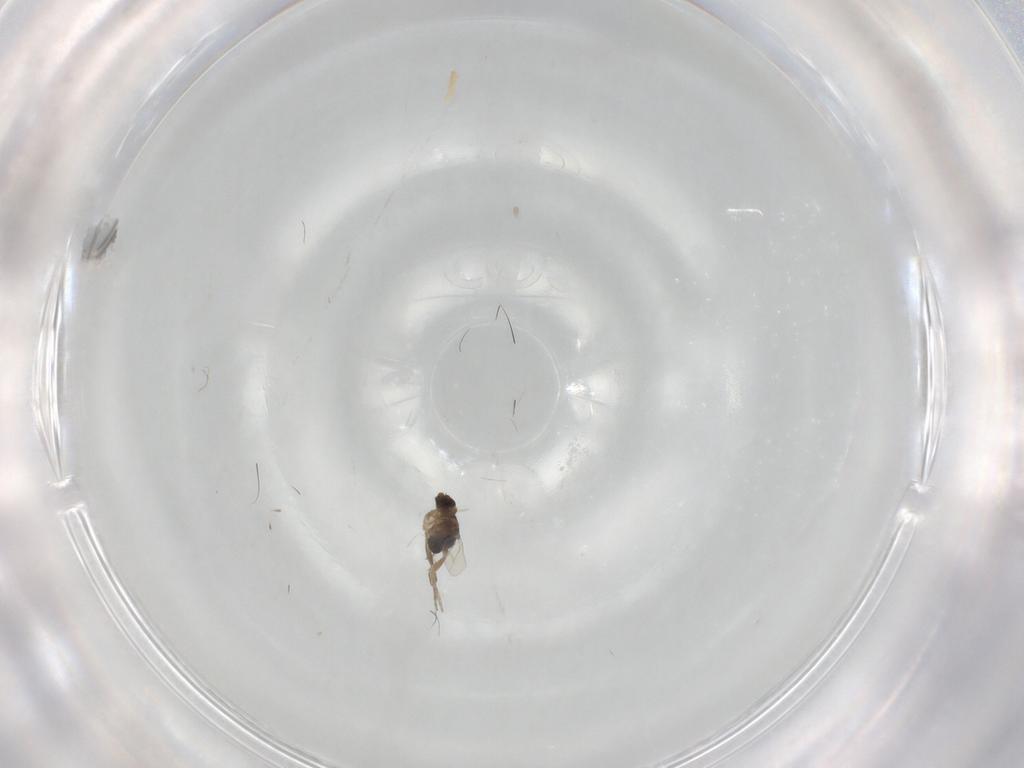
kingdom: Animalia
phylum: Arthropoda
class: Insecta
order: Diptera
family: Phoridae
